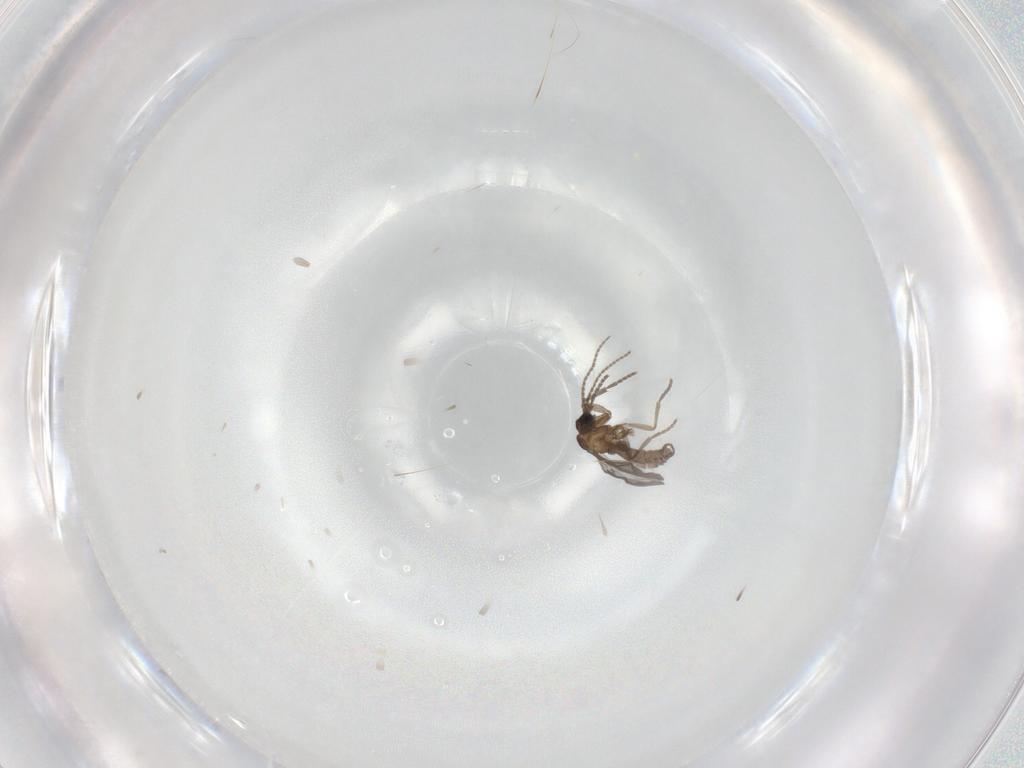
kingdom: Animalia
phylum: Arthropoda
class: Insecta
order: Diptera
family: Sciaridae
